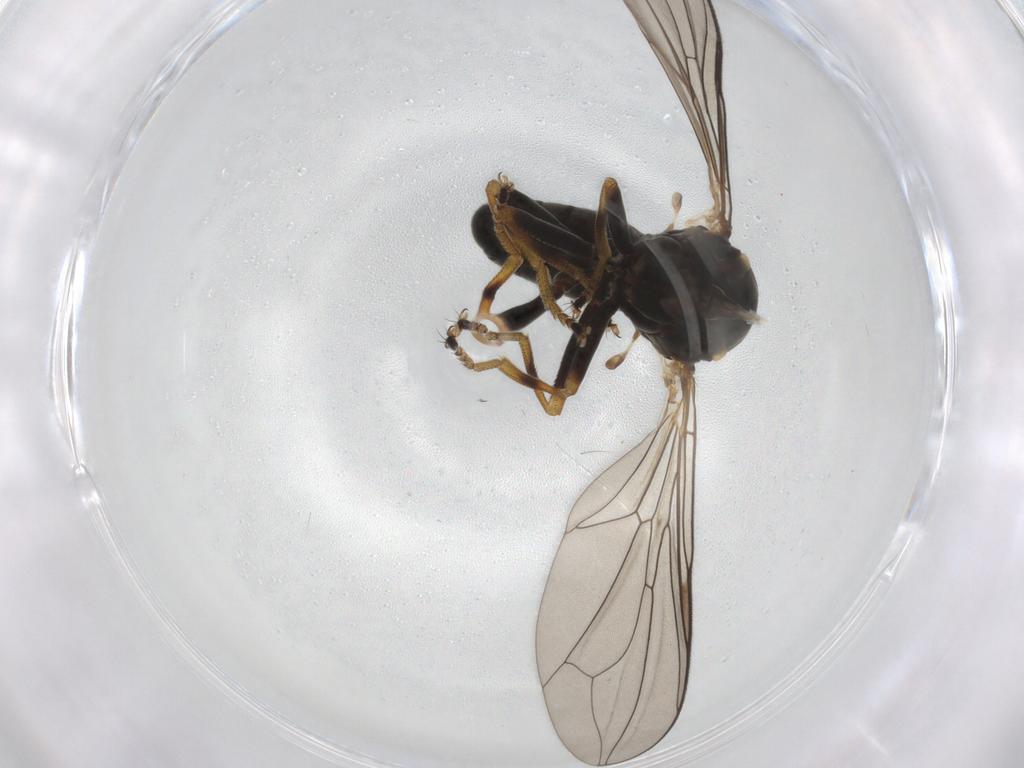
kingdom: Animalia
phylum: Arthropoda
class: Insecta
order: Diptera
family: Pipunculidae
